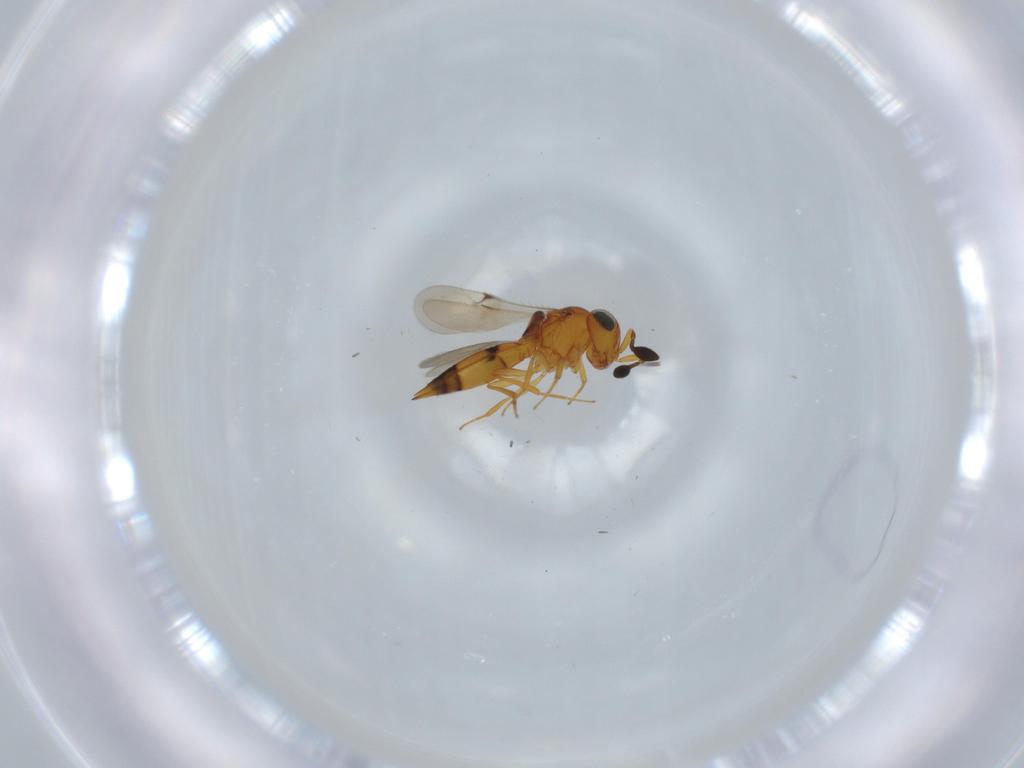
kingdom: Animalia
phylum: Arthropoda
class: Insecta
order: Hymenoptera
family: Scelionidae
